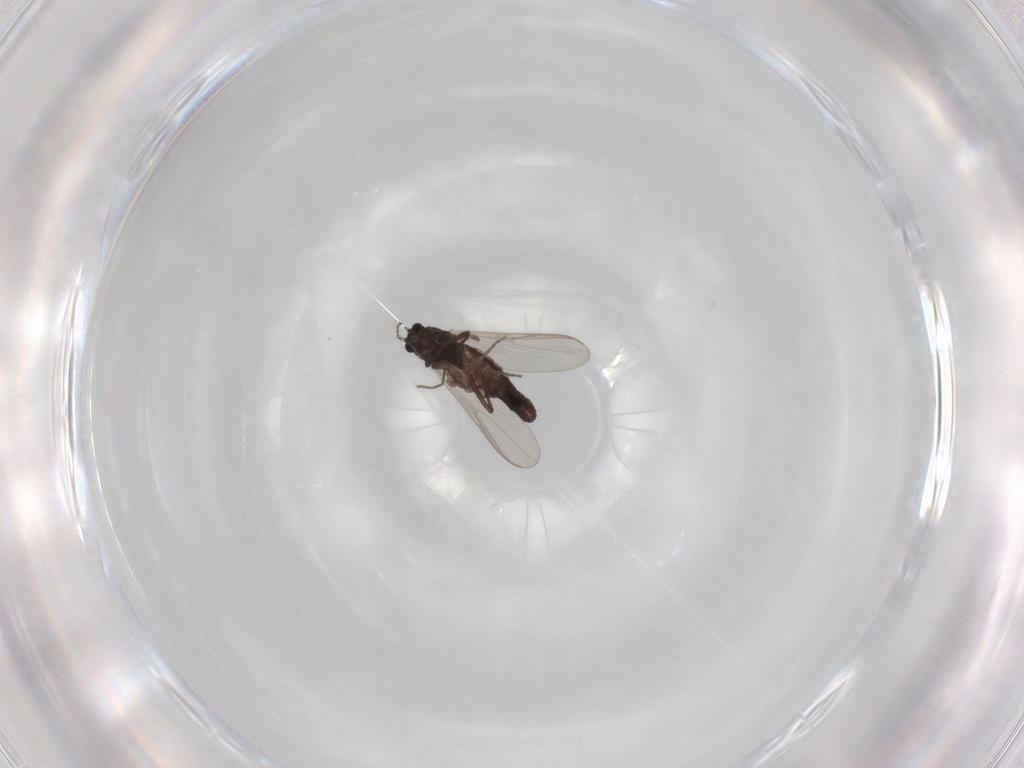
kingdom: Animalia
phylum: Arthropoda
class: Insecta
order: Diptera
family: Chironomidae
